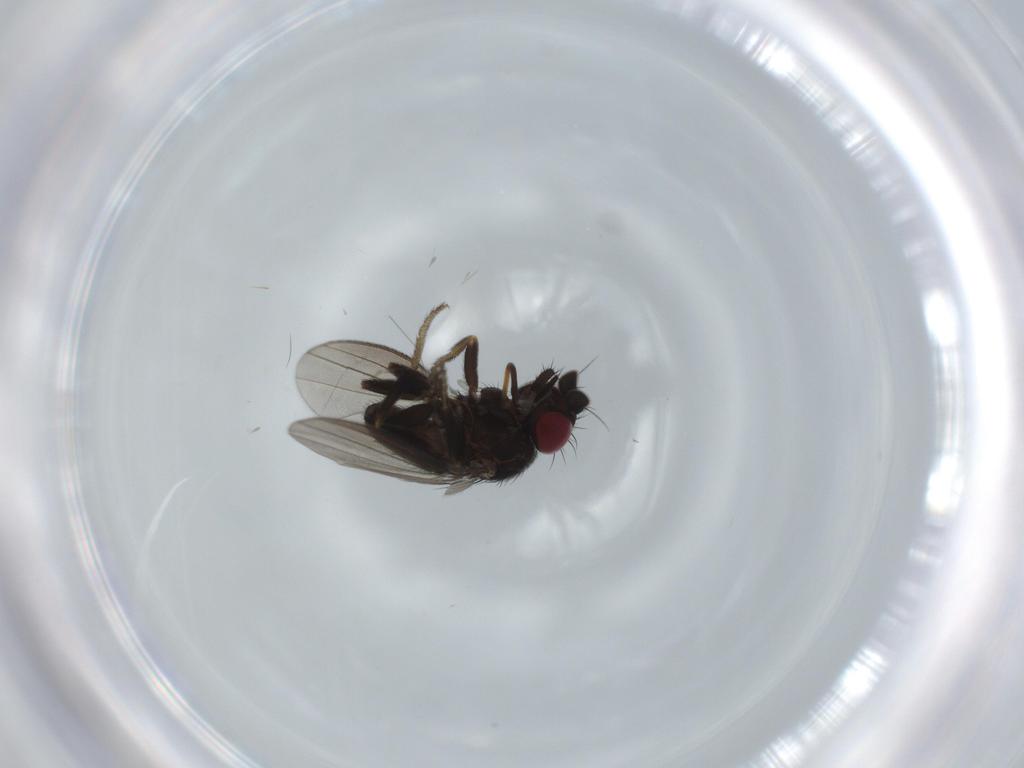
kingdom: Animalia
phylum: Arthropoda
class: Insecta
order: Diptera
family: Milichiidae
